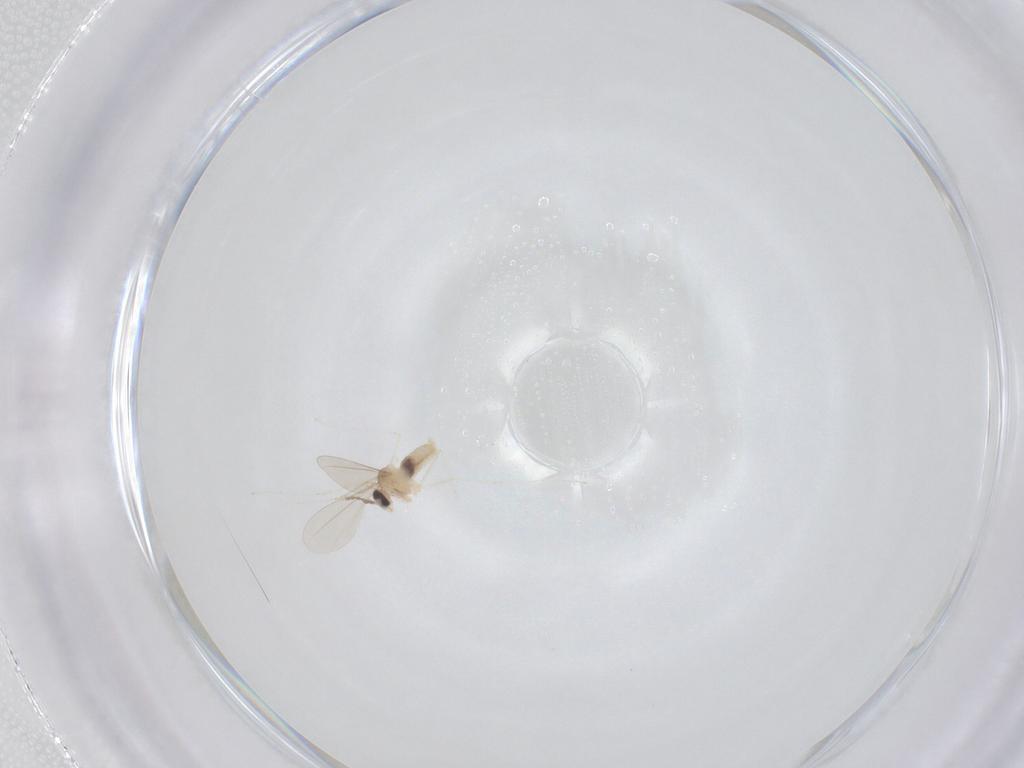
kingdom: Animalia
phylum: Arthropoda
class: Insecta
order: Diptera
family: Cecidomyiidae
